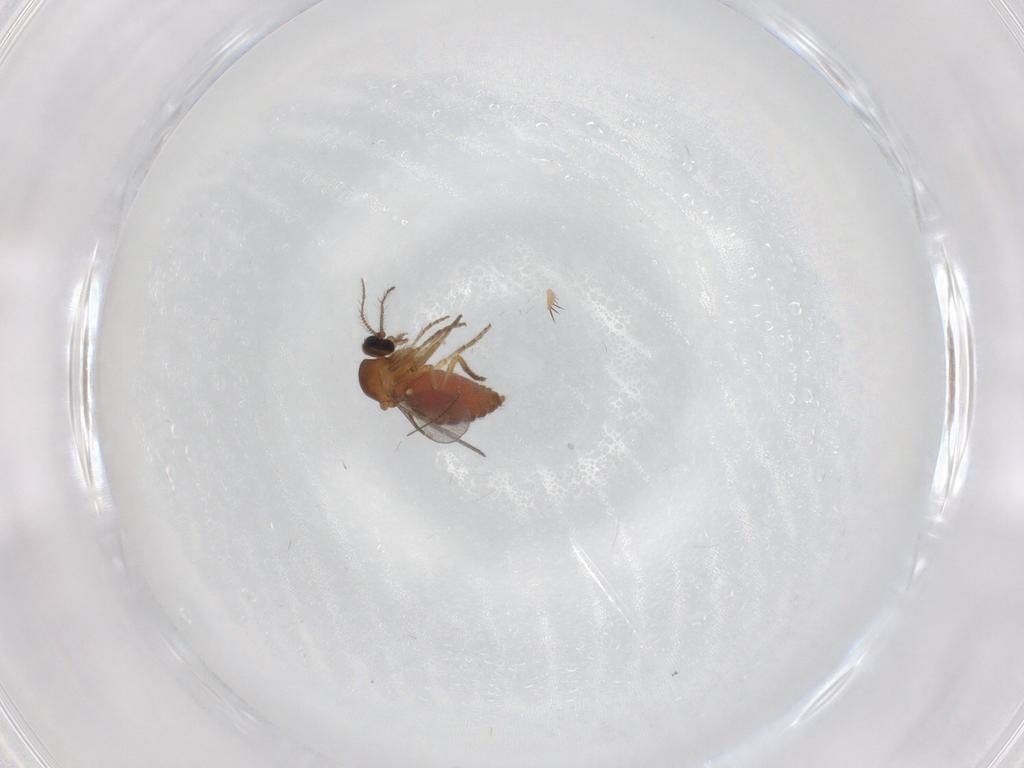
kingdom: Animalia
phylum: Arthropoda
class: Insecta
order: Diptera
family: Ceratopogonidae
